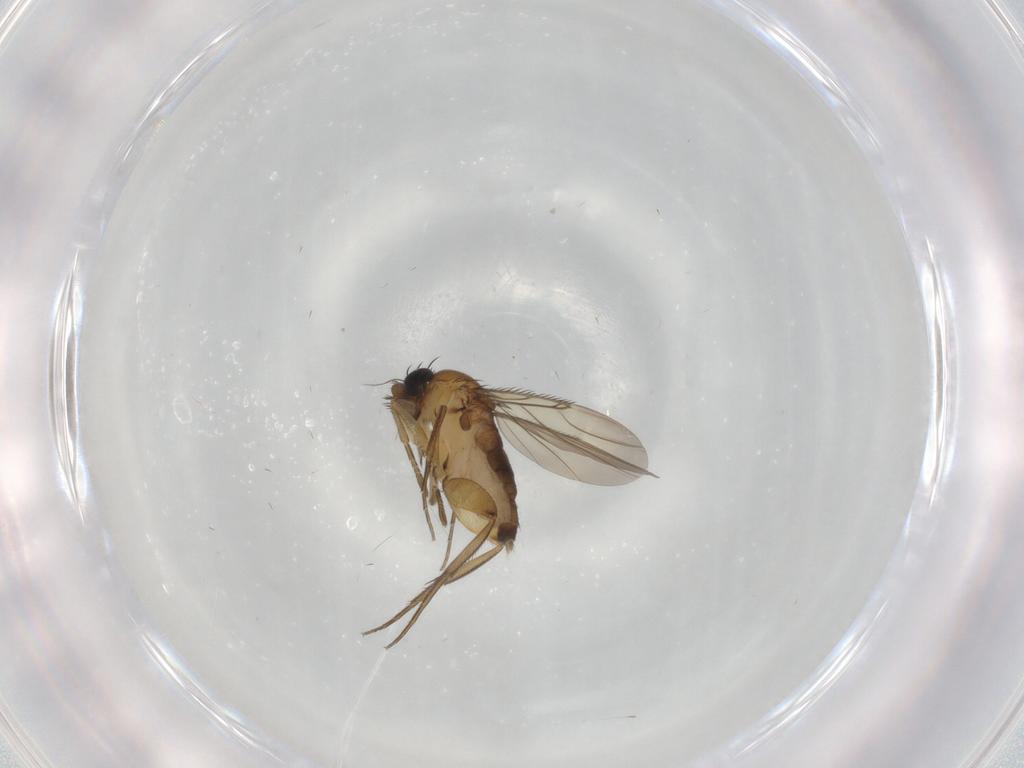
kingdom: Animalia
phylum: Arthropoda
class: Insecta
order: Diptera
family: Phoridae
